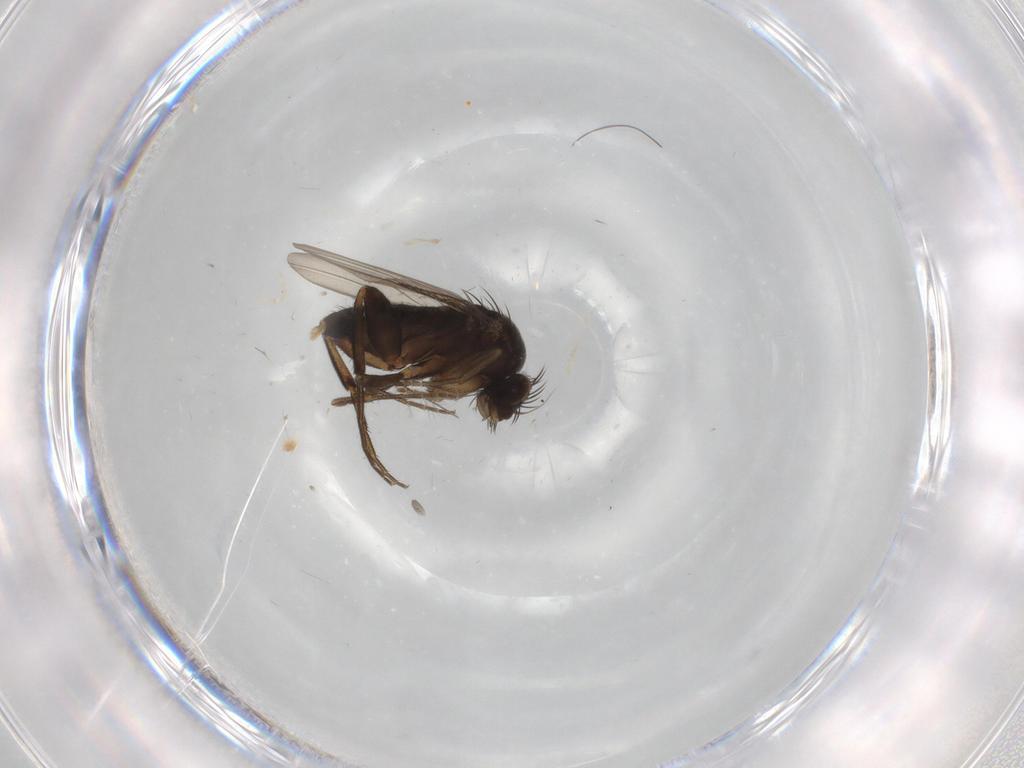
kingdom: Animalia
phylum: Arthropoda
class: Insecta
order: Diptera
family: Phoridae
